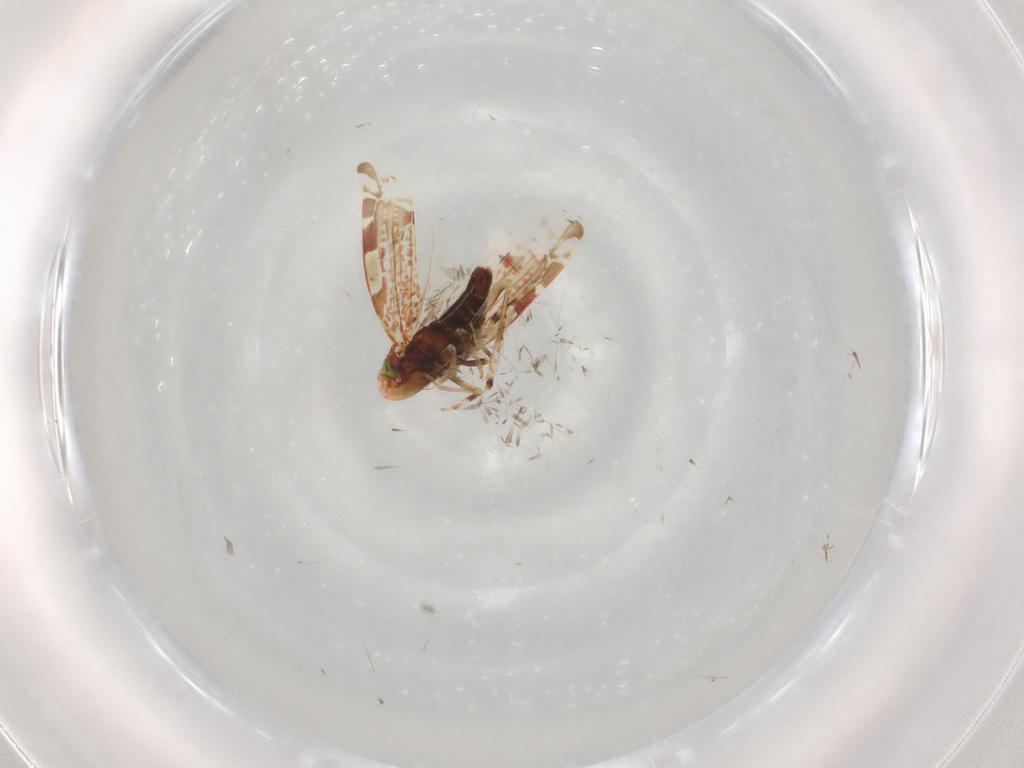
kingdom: Animalia
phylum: Arthropoda
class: Insecta
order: Hemiptera
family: Cicadellidae
